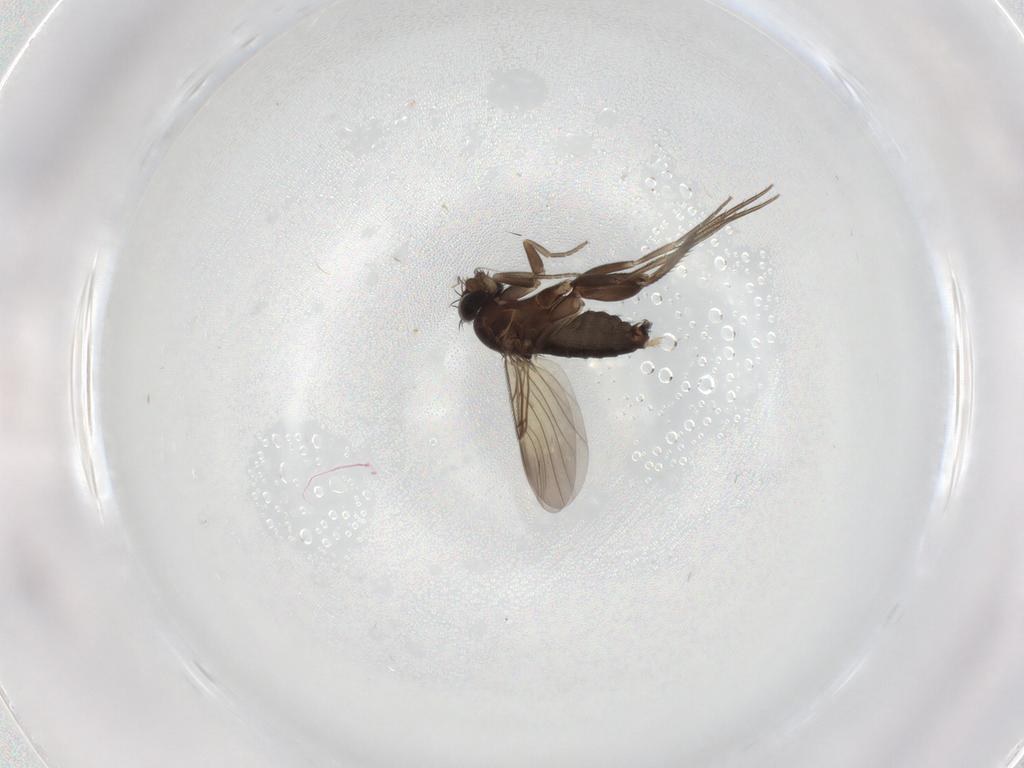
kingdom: Animalia
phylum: Arthropoda
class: Insecta
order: Diptera
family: Phoridae
